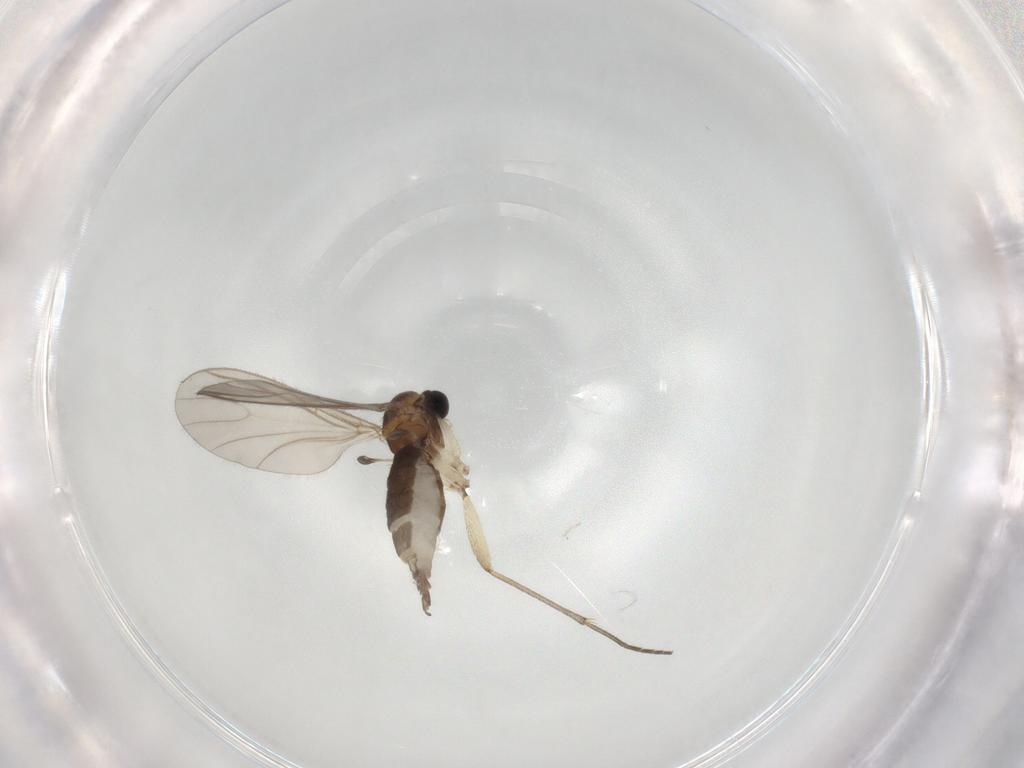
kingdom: Animalia
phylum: Arthropoda
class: Insecta
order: Diptera
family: Sciaridae
